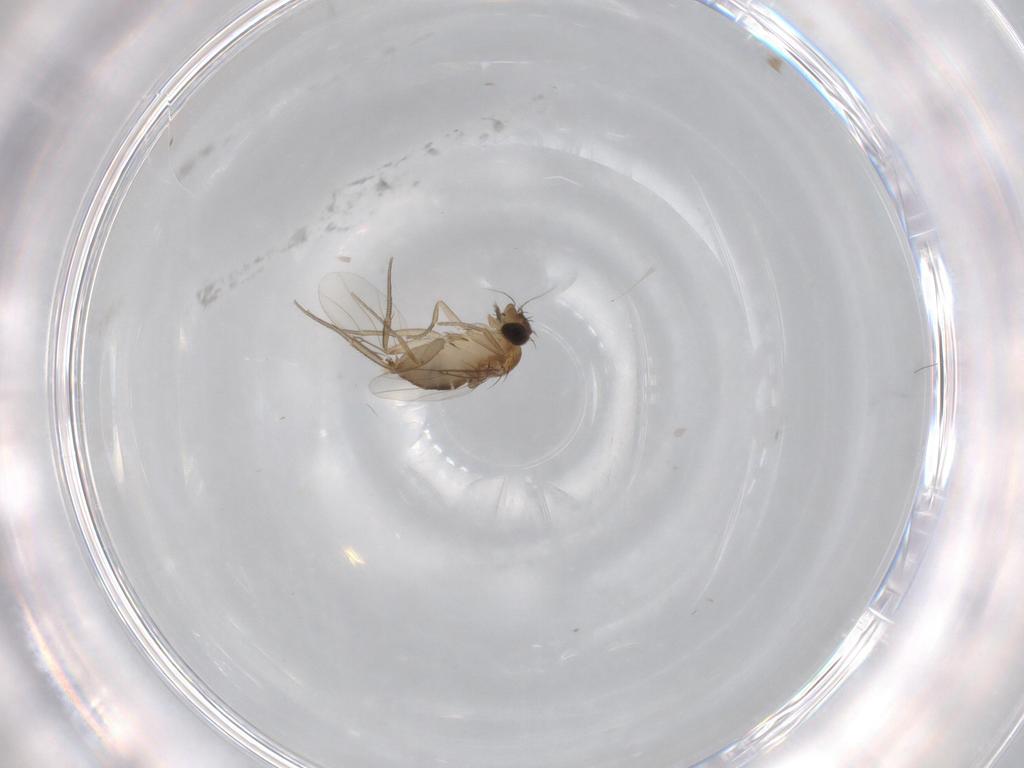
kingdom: Animalia
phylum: Arthropoda
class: Insecta
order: Diptera
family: Phoridae
